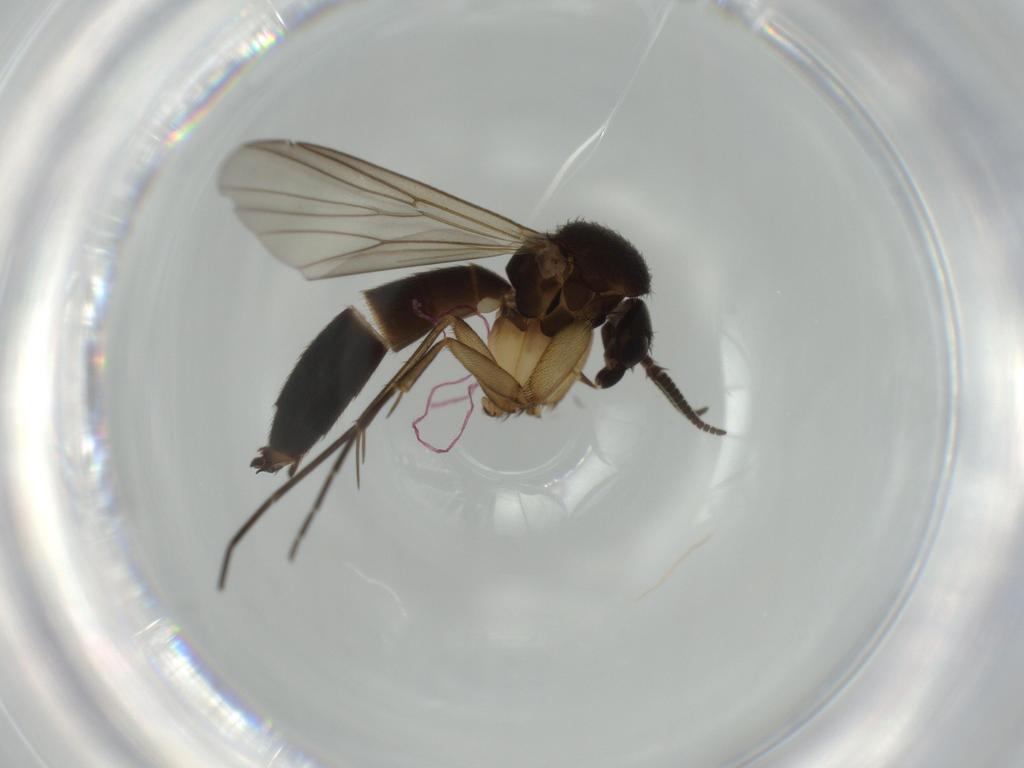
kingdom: Animalia
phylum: Arthropoda
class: Insecta
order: Diptera
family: Mycetophilidae
